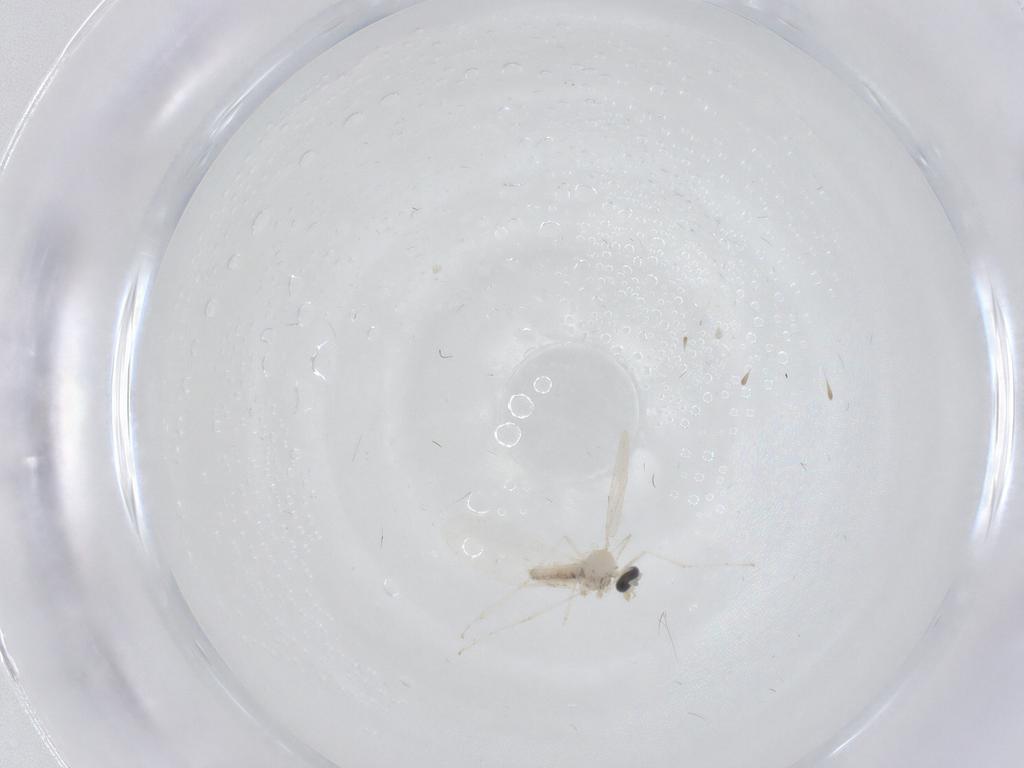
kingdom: Animalia
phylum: Arthropoda
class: Insecta
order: Diptera
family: Cecidomyiidae
